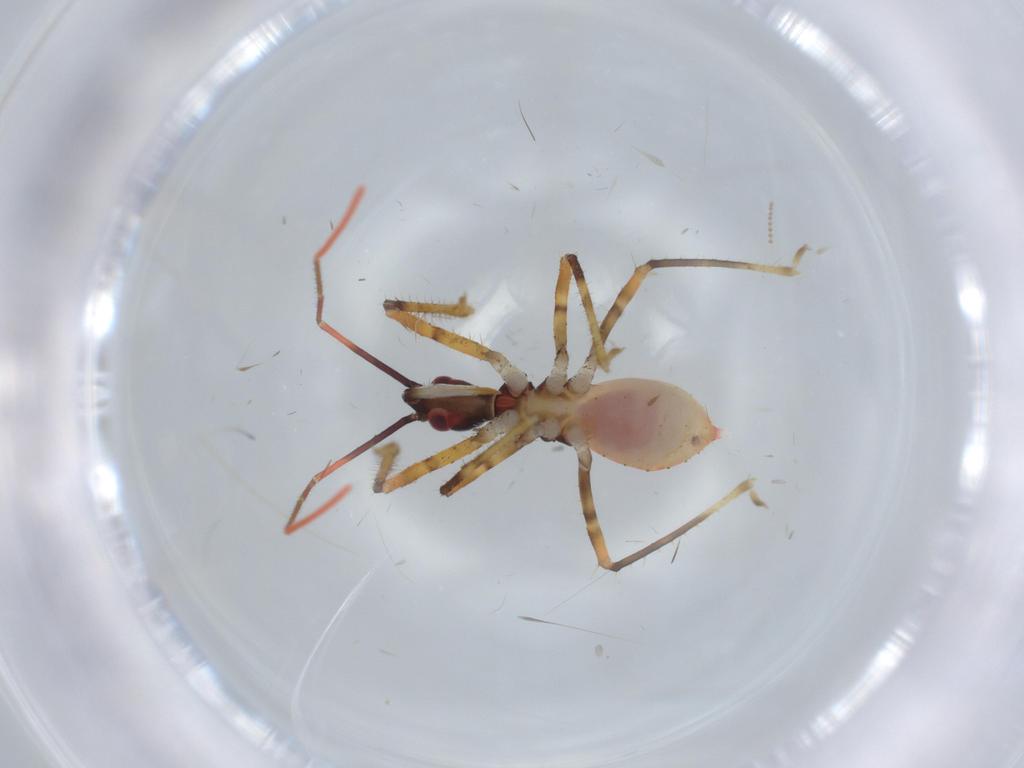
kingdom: Animalia
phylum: Arthropoda
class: Insecta
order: Hemiptera
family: Reduviidae
